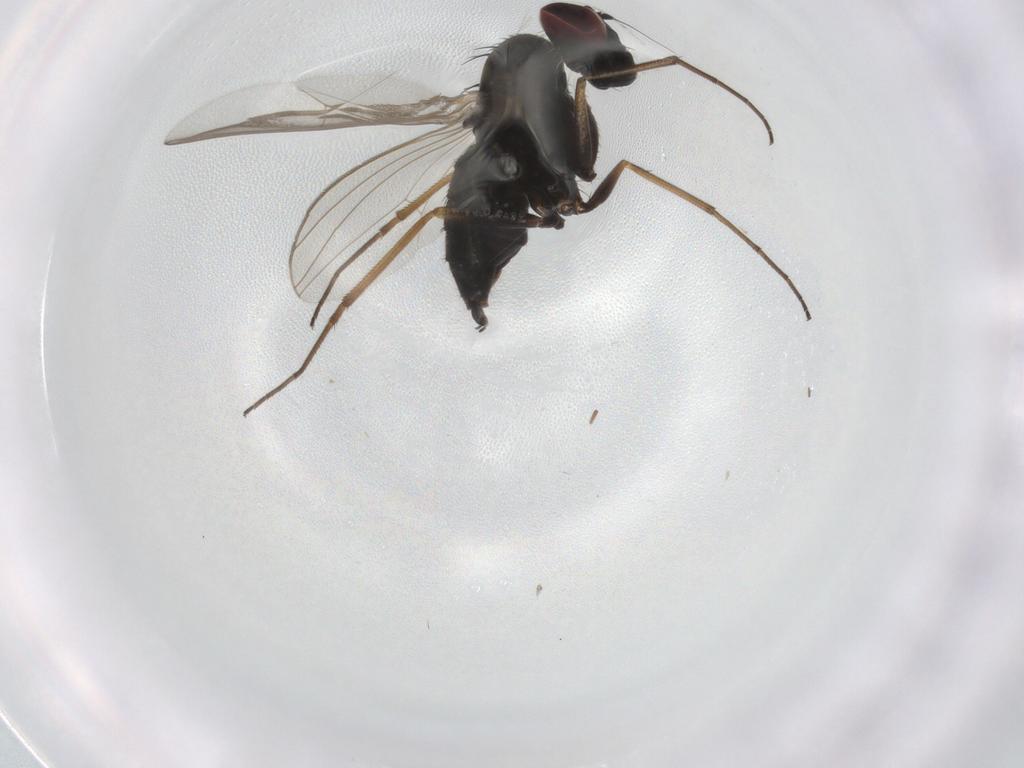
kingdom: Animalia
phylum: Arthropoda
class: Insecta
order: Diptera
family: Dolichopodidae
